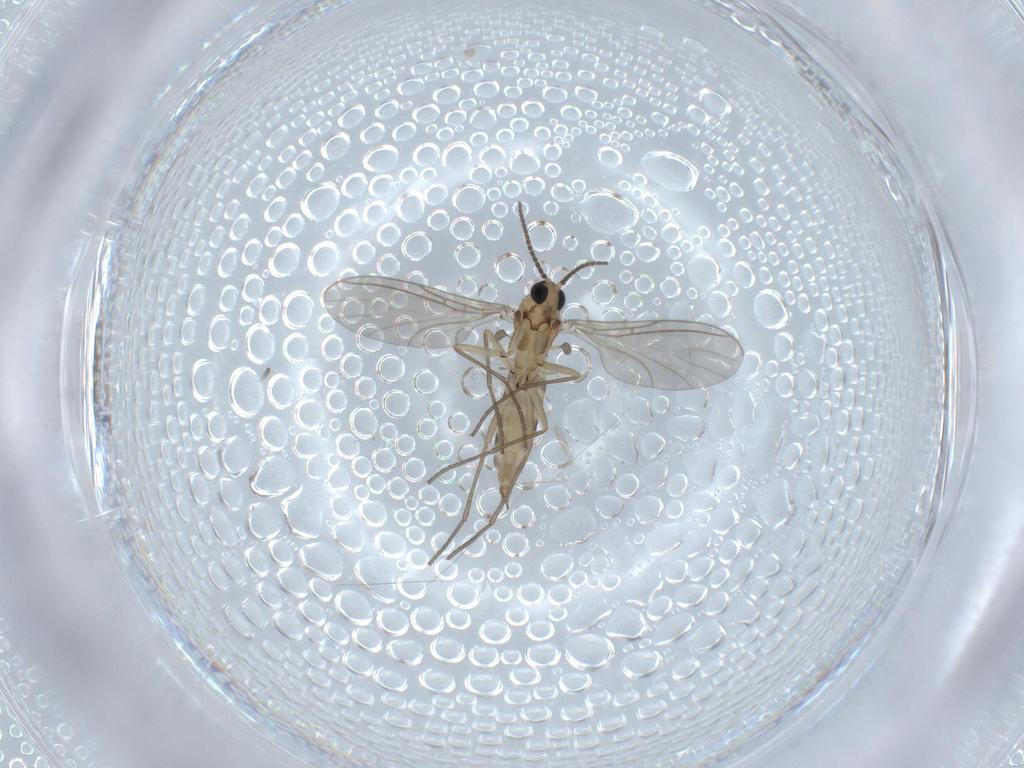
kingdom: Animalia
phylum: Arthropoda
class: Insecta
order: Diptera
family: Sciaridae
